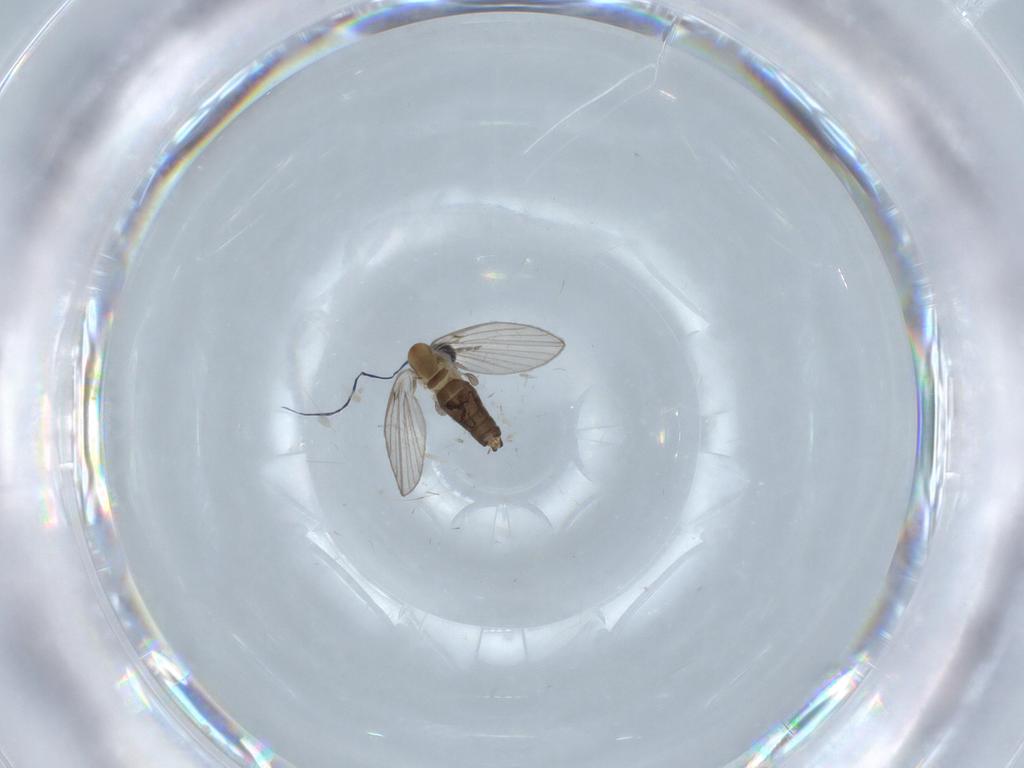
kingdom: Animalia
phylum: Arthropoda
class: Insecta
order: Diptera
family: Psychodidae
